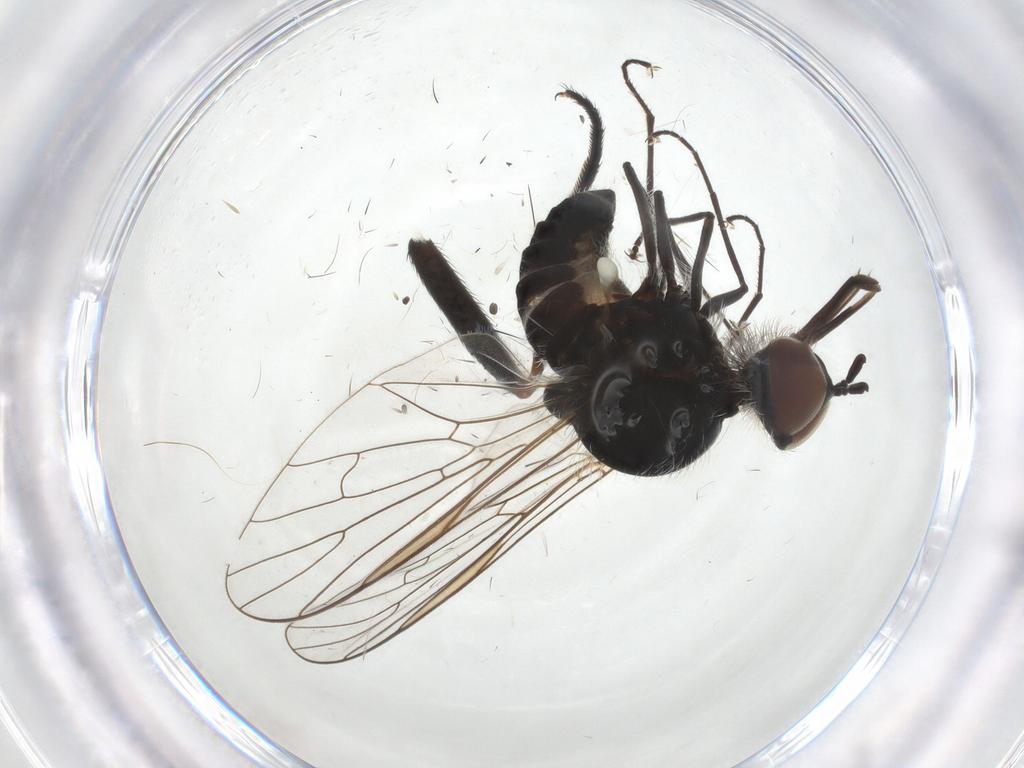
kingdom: Animalia
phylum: Arthropoda
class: Insecta
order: Diptera
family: Bombyliidae
